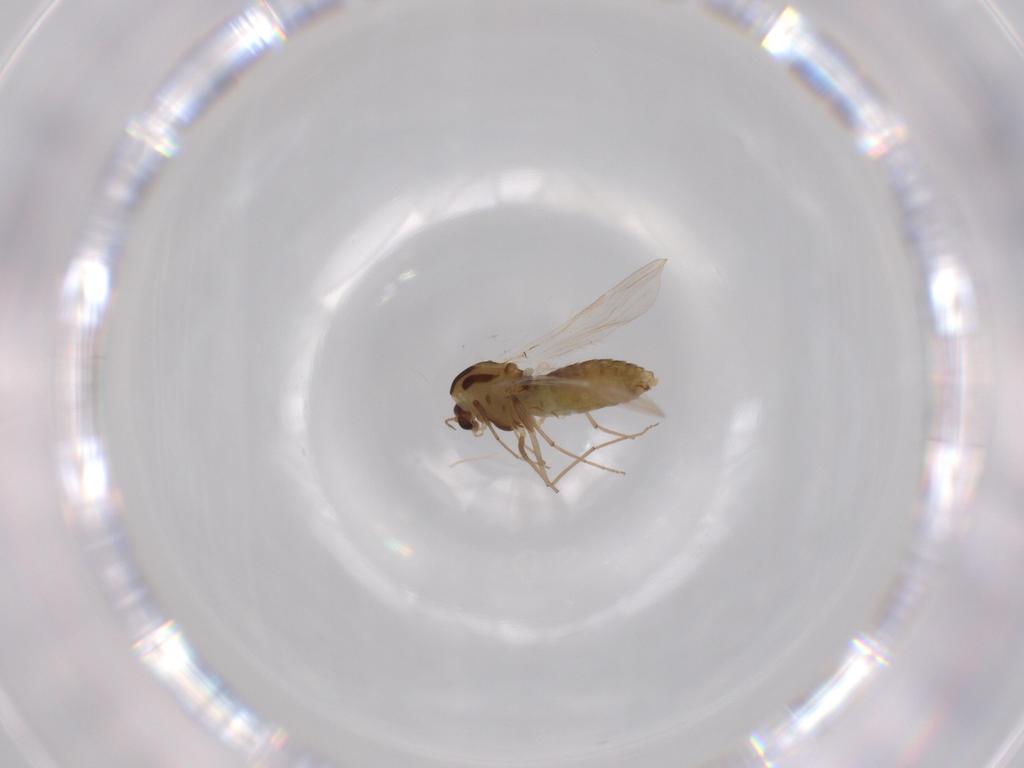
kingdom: Animalia
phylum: Arthropoda
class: Insecta
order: Diptera
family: Chironomidae
